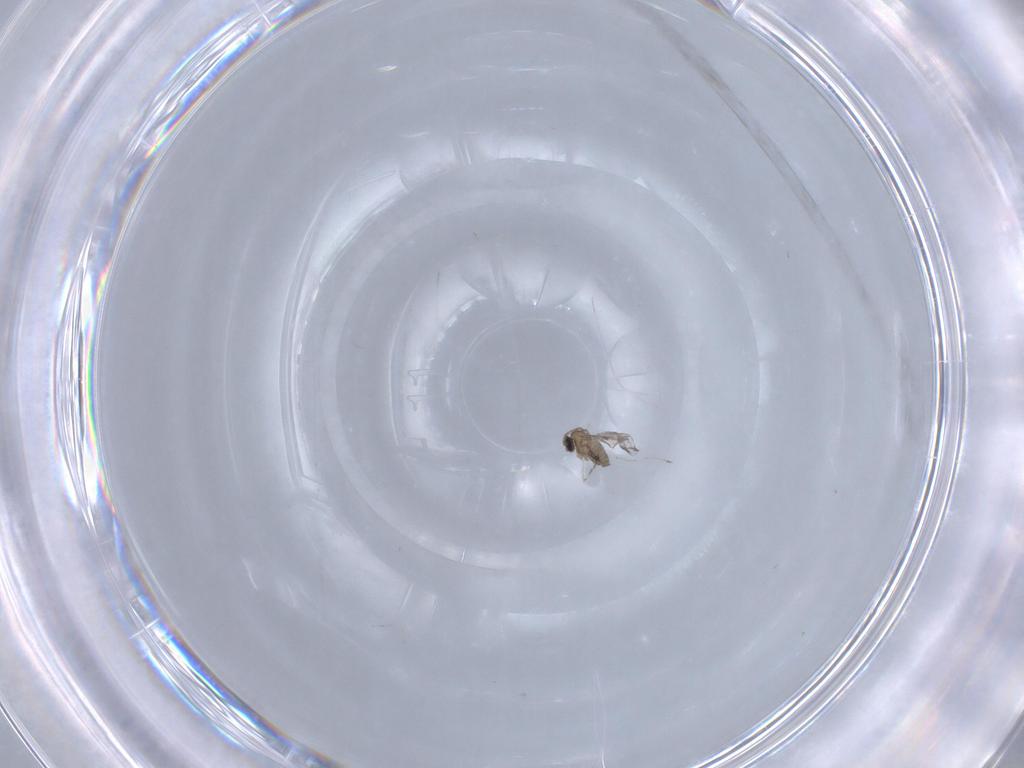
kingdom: Animalia
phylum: Arthropoda
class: Insecta
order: Diptera
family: Cecidomyiidae
